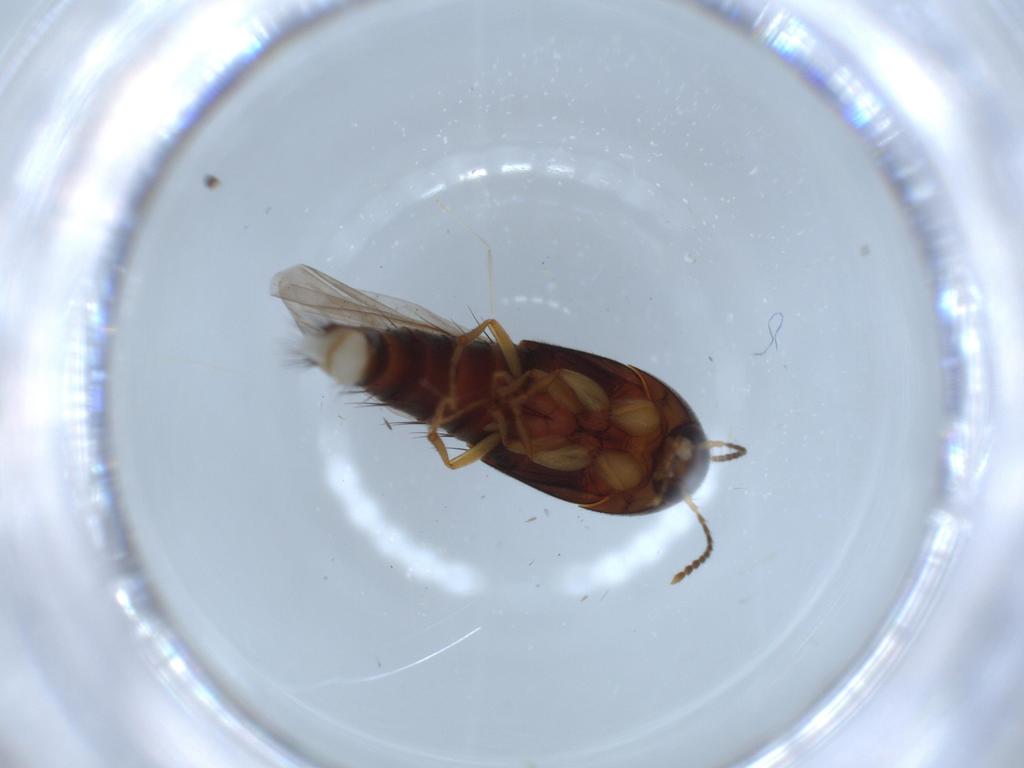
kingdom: Animalia
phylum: Arthropoda
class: Insecta
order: Coleoptera
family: Staphylinidae
